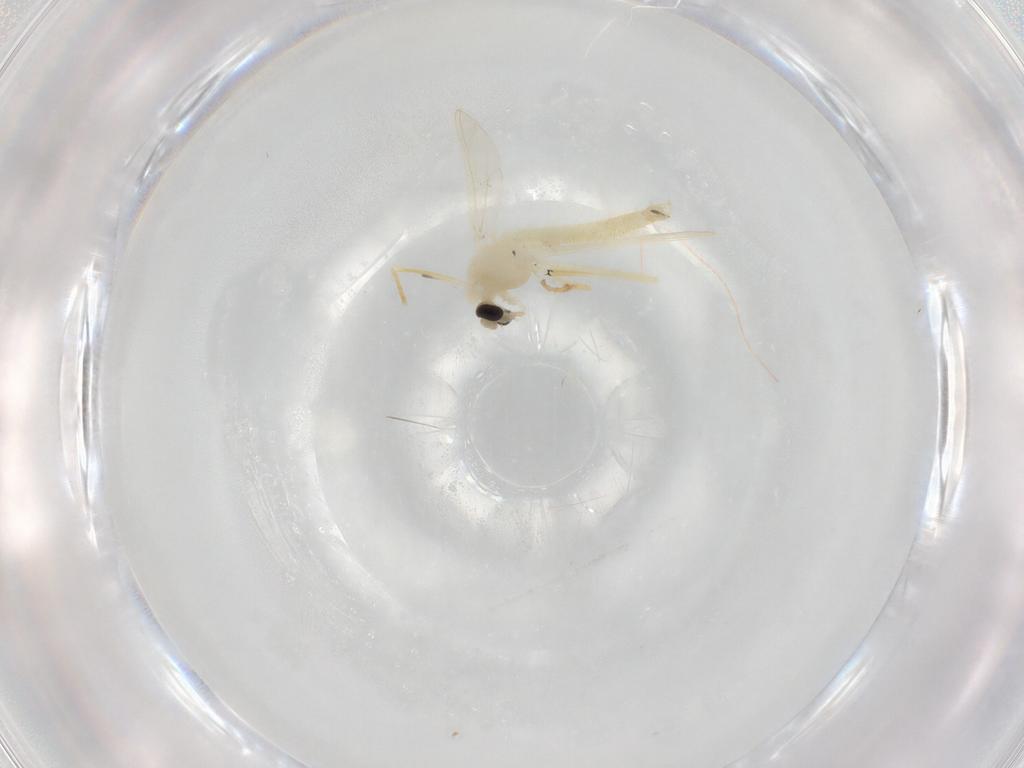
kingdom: Animalia
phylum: Arthropoda
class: Insecta
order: Diptera
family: Chironomidae
